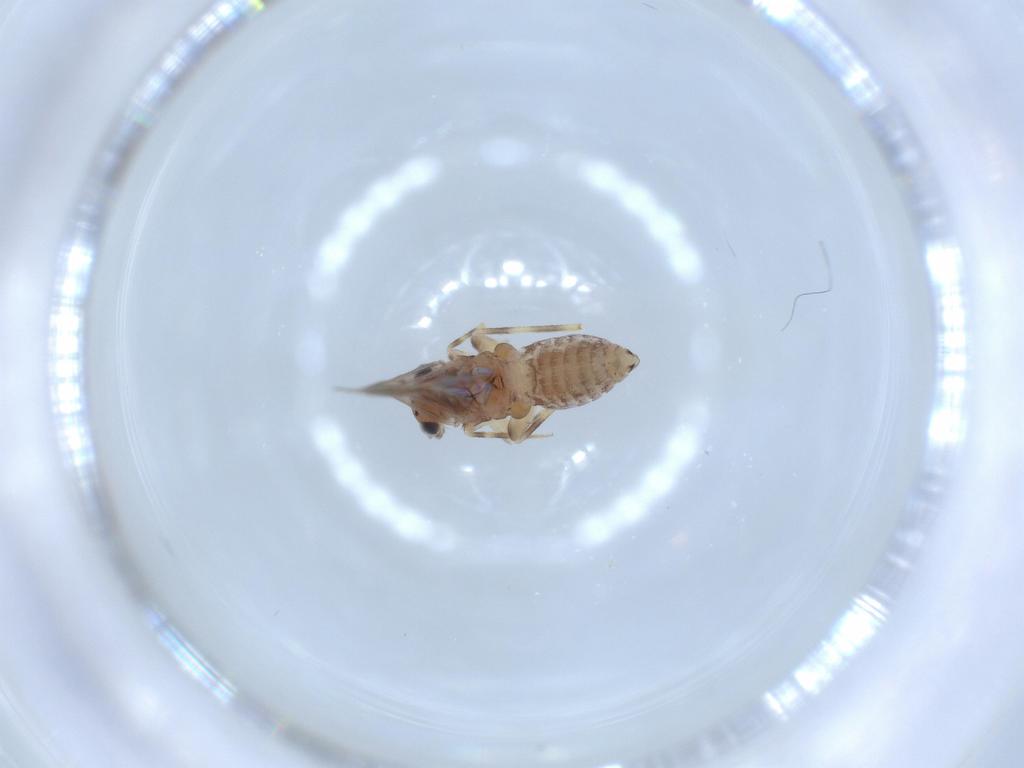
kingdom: Animalia
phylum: Arthropoda
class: Insecta
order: Psocodea
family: Lepidopsocidae
